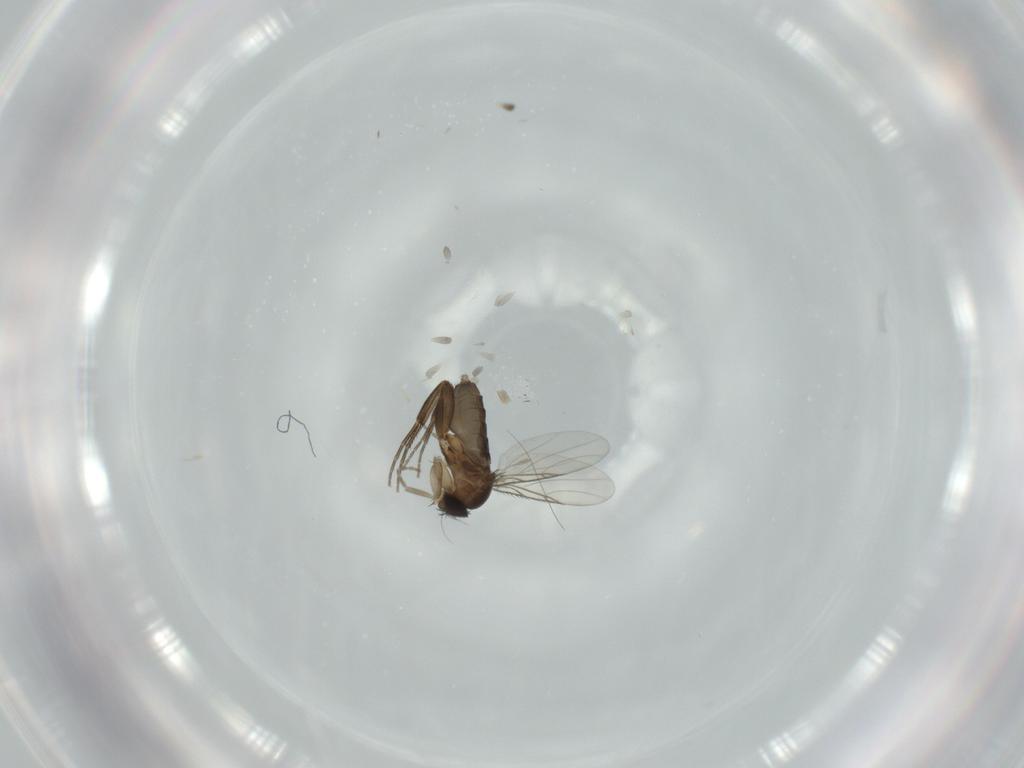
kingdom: Animalia
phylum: Arthropoda
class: Insecta
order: Diptera
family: Phoridae
